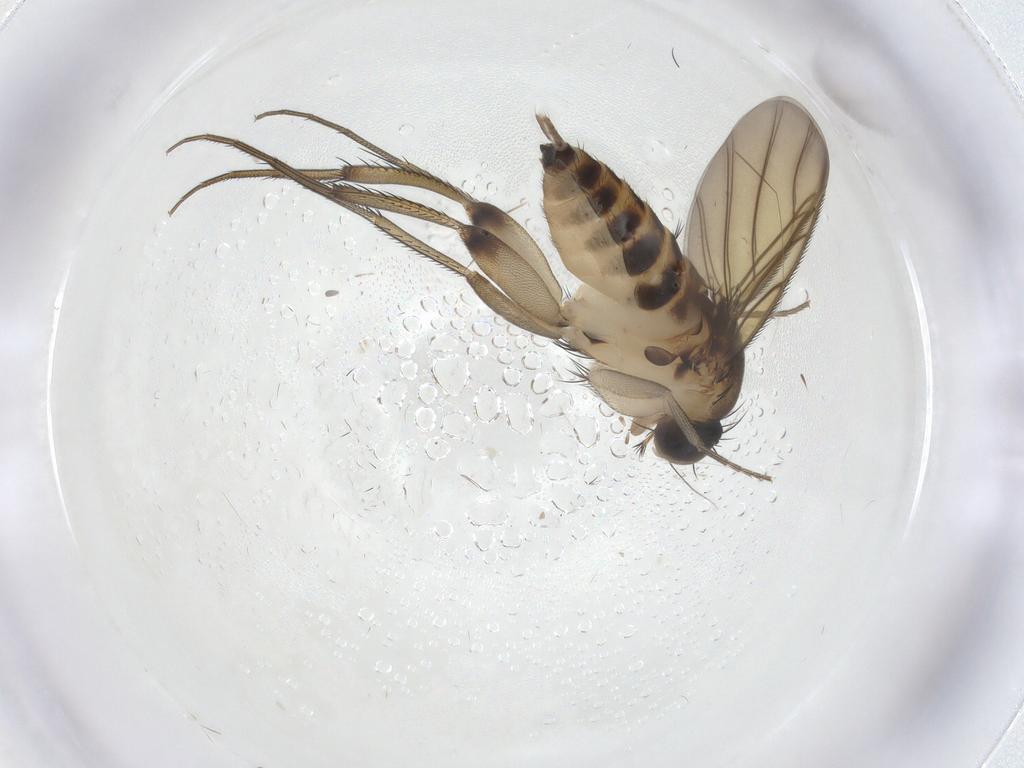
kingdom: Animalia
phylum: Arthropoda
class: Insecta
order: Diptera
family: Phoridae
